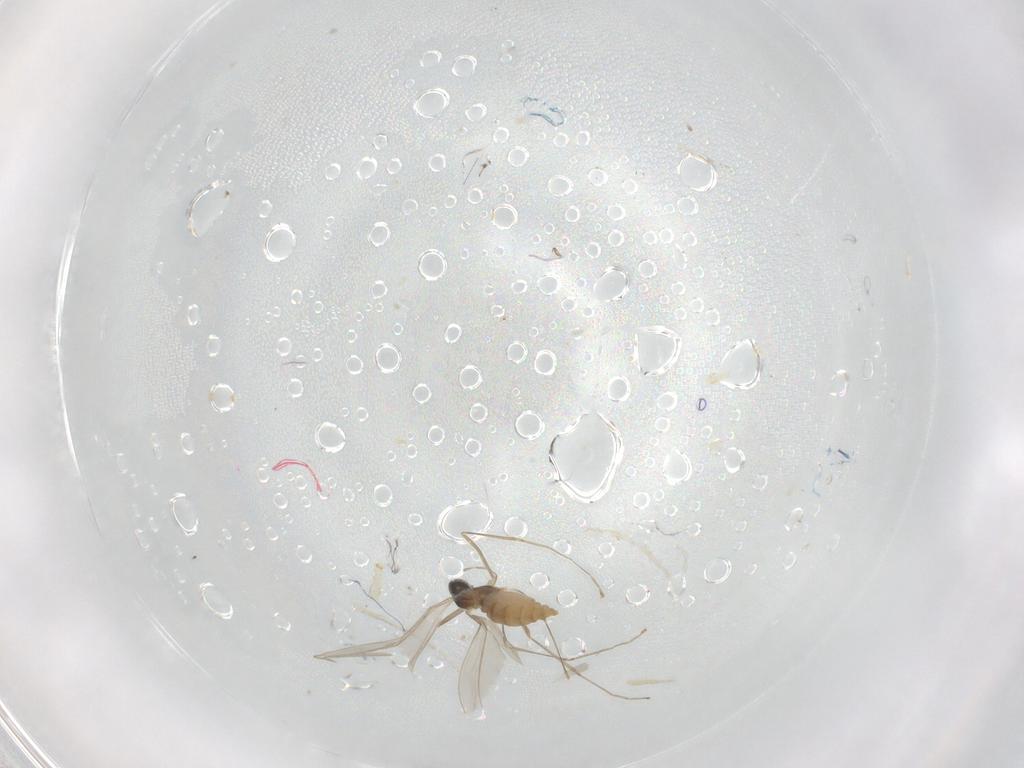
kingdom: Animalia
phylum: Arthropoda
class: Insecta
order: Diptera
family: Cecidomyiidae
